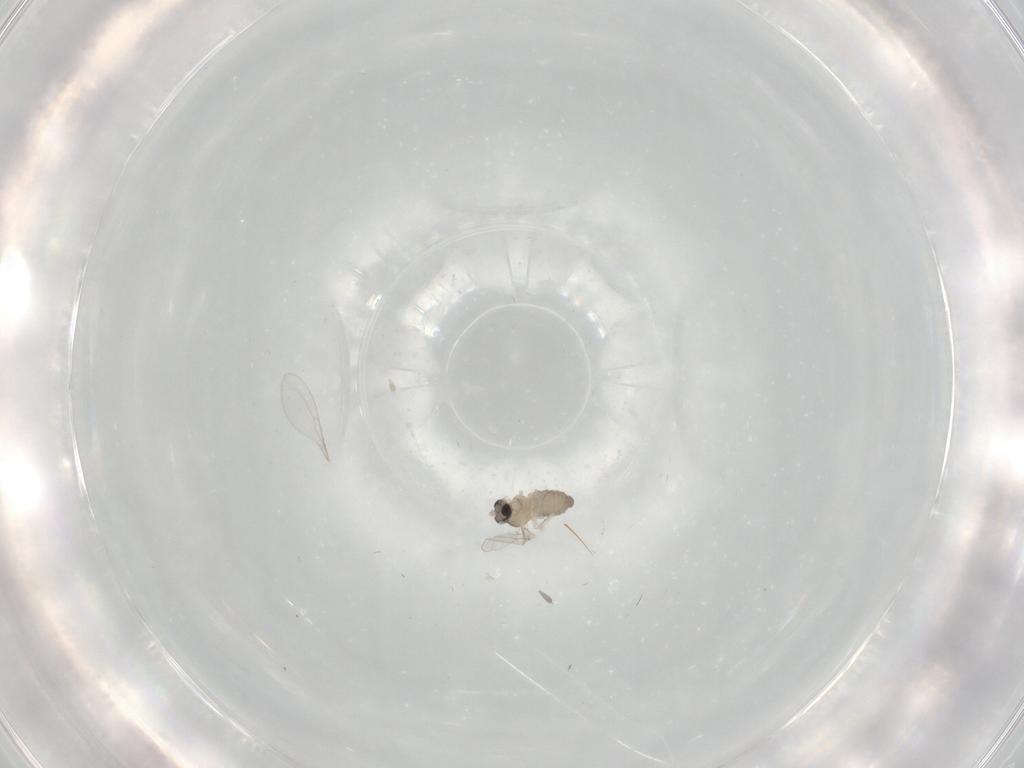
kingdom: Animalia
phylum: Arthropoda
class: Insecta
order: Diptera
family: Cecidomyiidae
